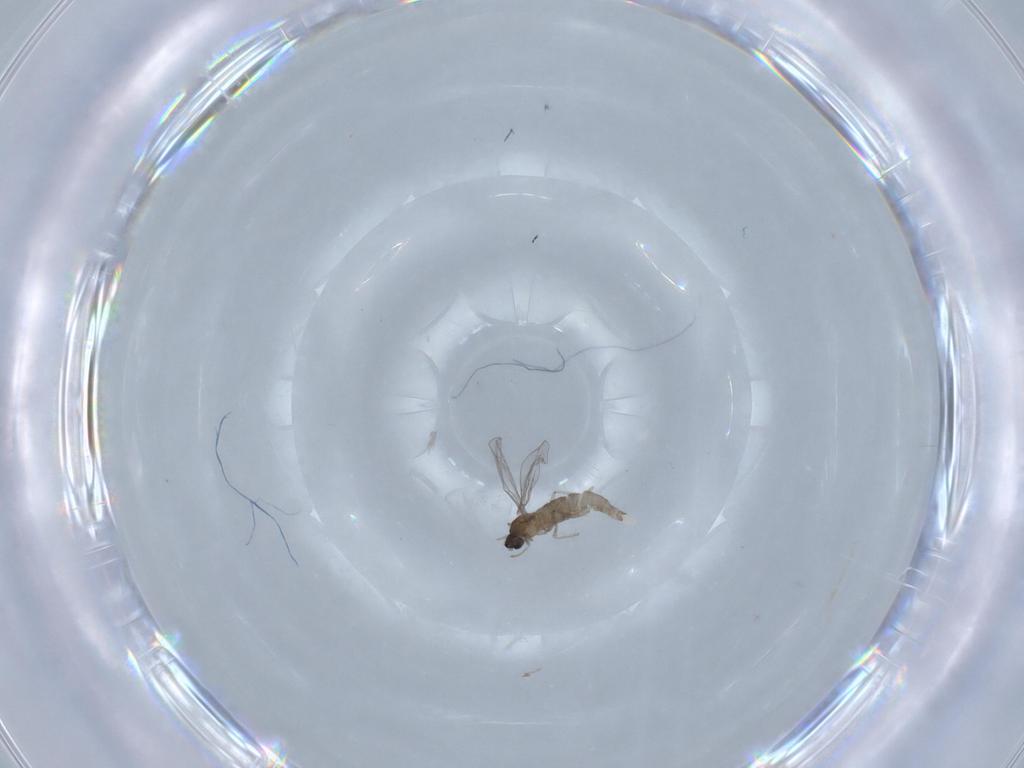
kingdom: Animalia
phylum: Arthropoda
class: Insecta
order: Diptera
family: Cecidomyiidae
